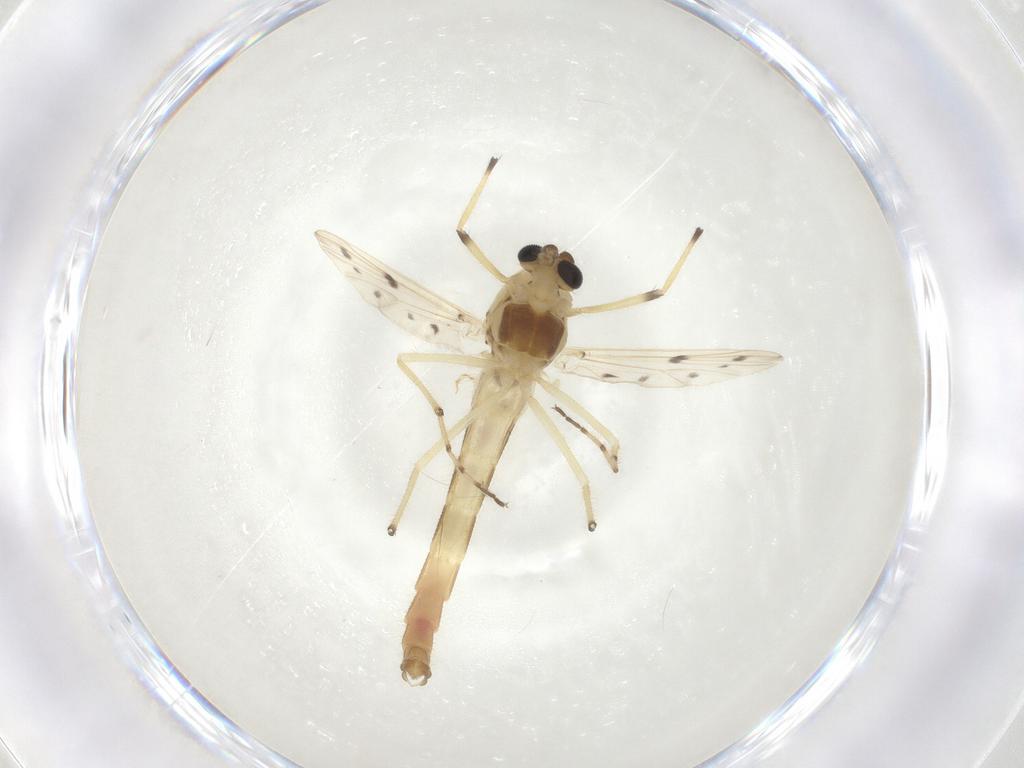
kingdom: Animalia
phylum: Arthropoda
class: Insecta
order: Diptera
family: Chironomidae
